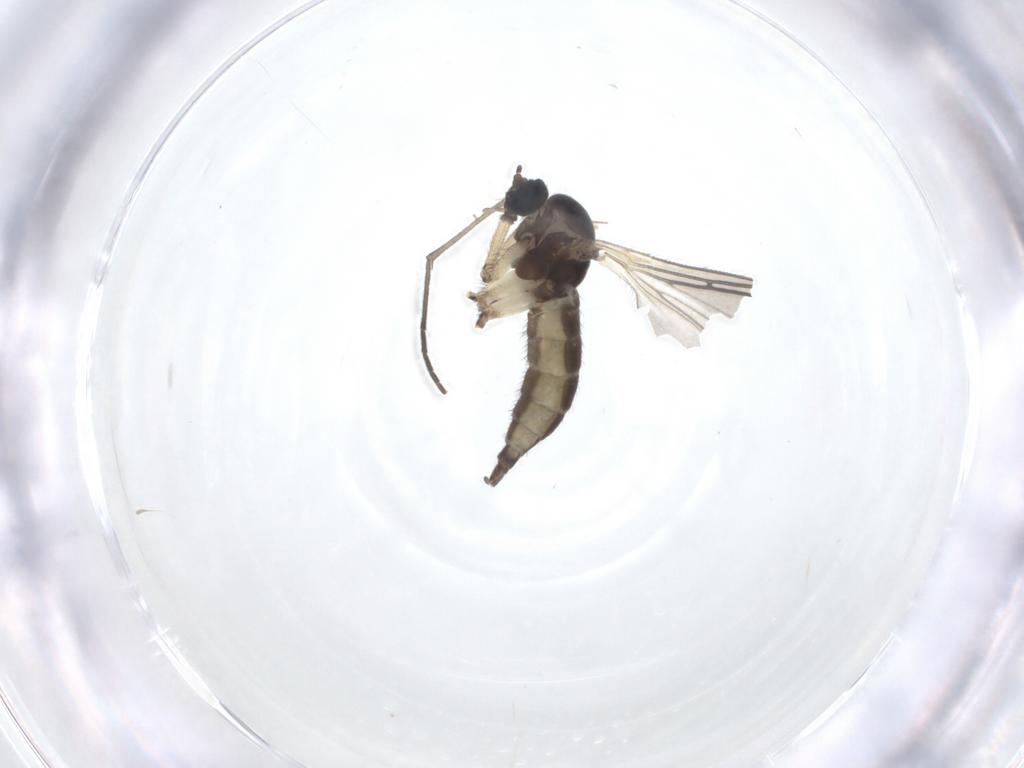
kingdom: Animalia
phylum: Arthropoda
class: Insecta
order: Diptera
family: Sciaridae
